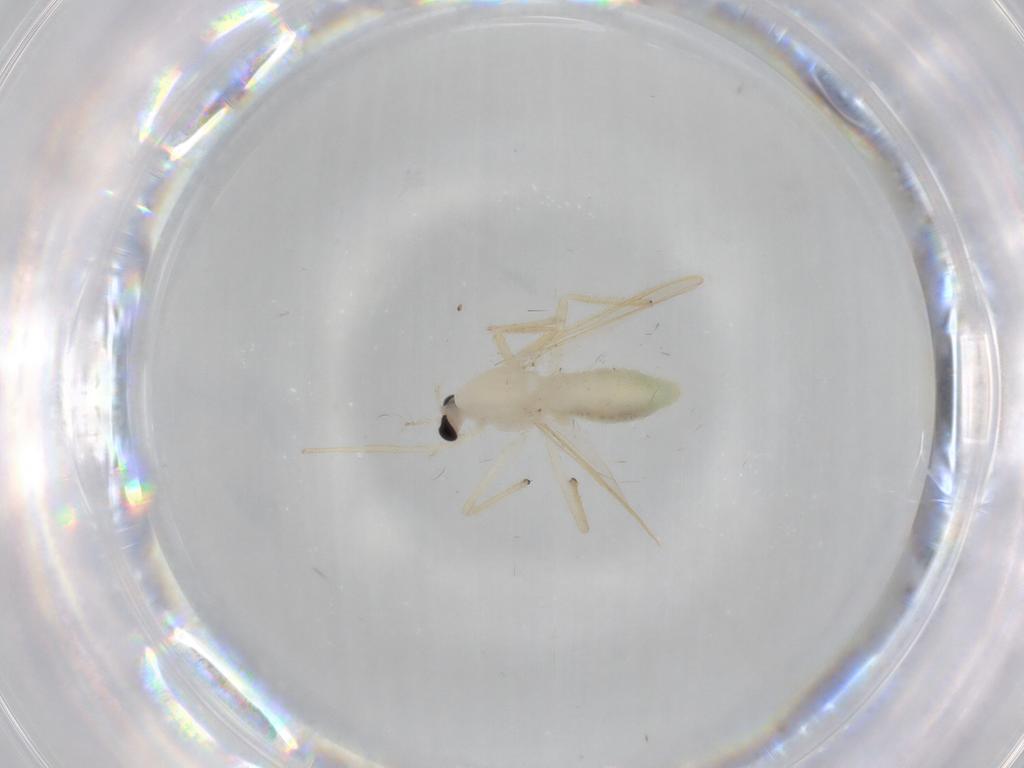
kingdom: Animalia
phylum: Arthropoda
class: Insecta
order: Diptera
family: Chironomidae
